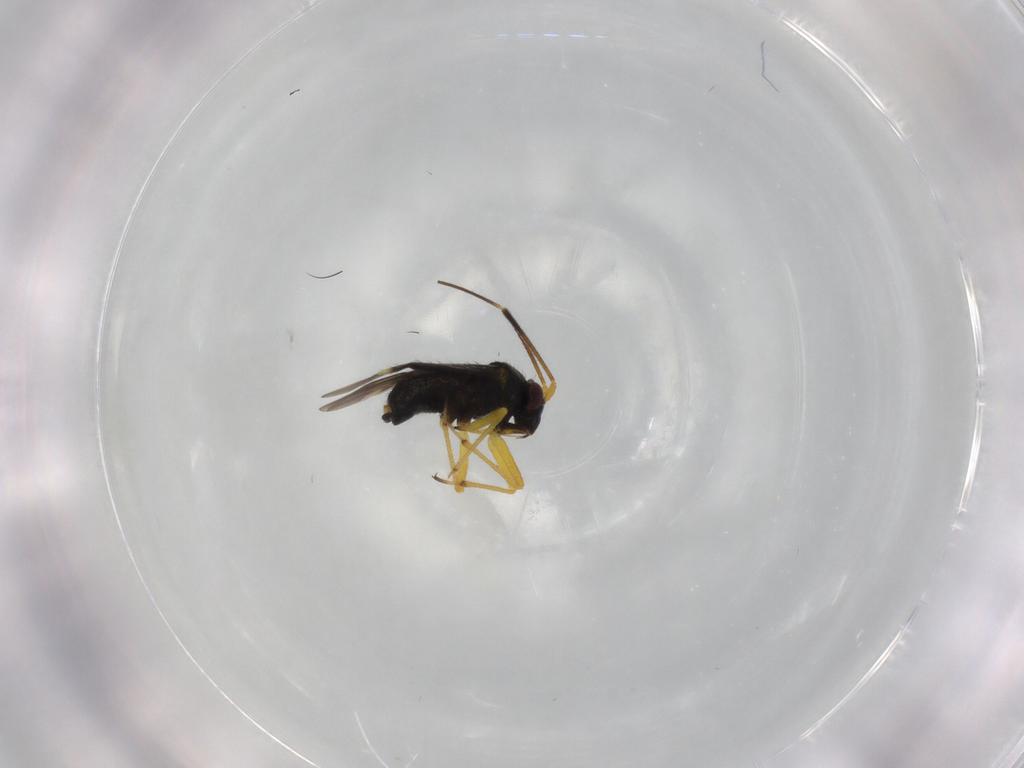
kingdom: Animalia
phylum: Arthropoda
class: Insecta
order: Hemiptera
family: Miridae
